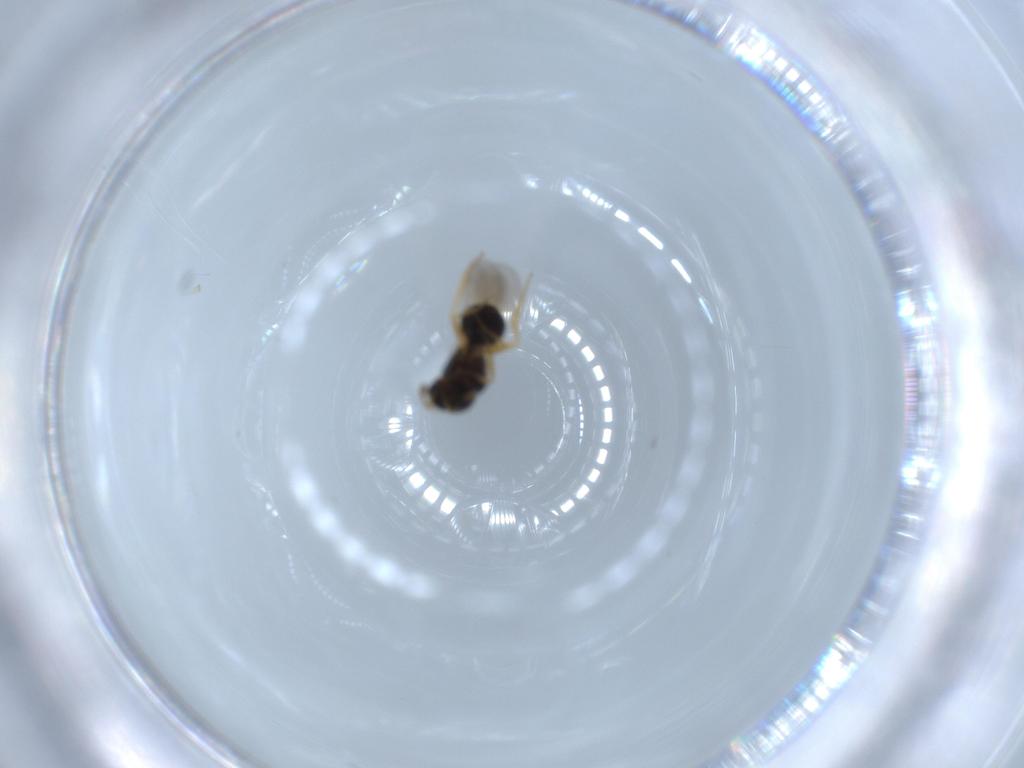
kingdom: Animalia
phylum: Arthropoda
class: Insecta
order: Hymenoptera
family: Scelionidae
